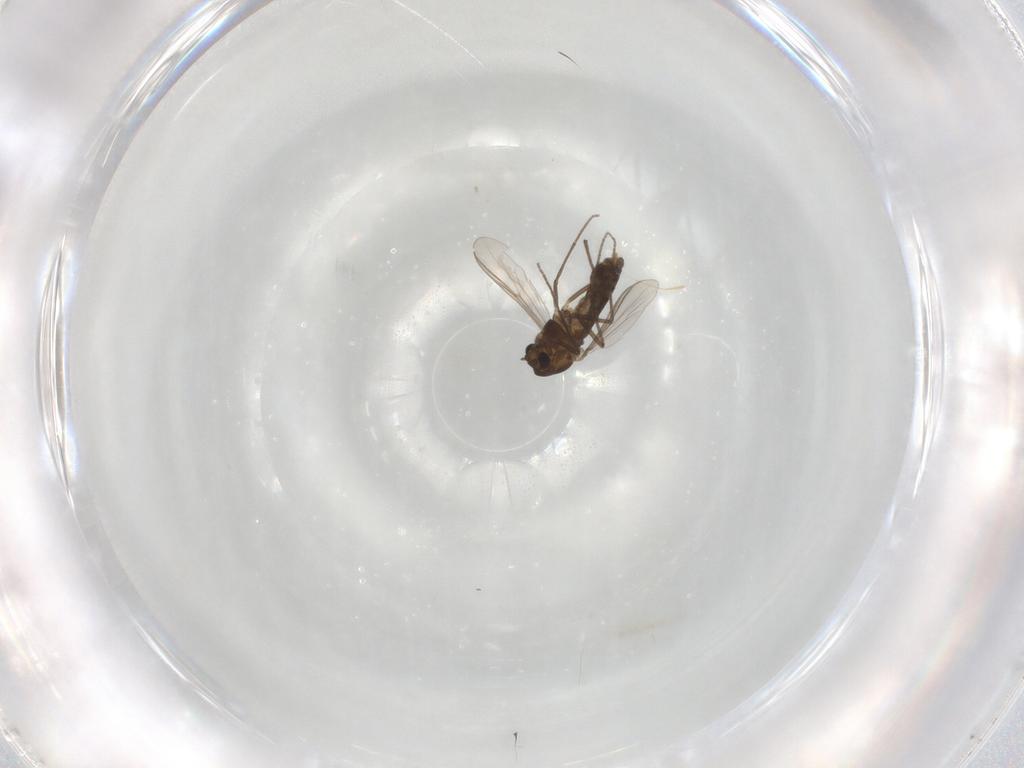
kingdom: Animalia
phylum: Arthropoda
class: Insecta
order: Diptera
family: Chironomidae
